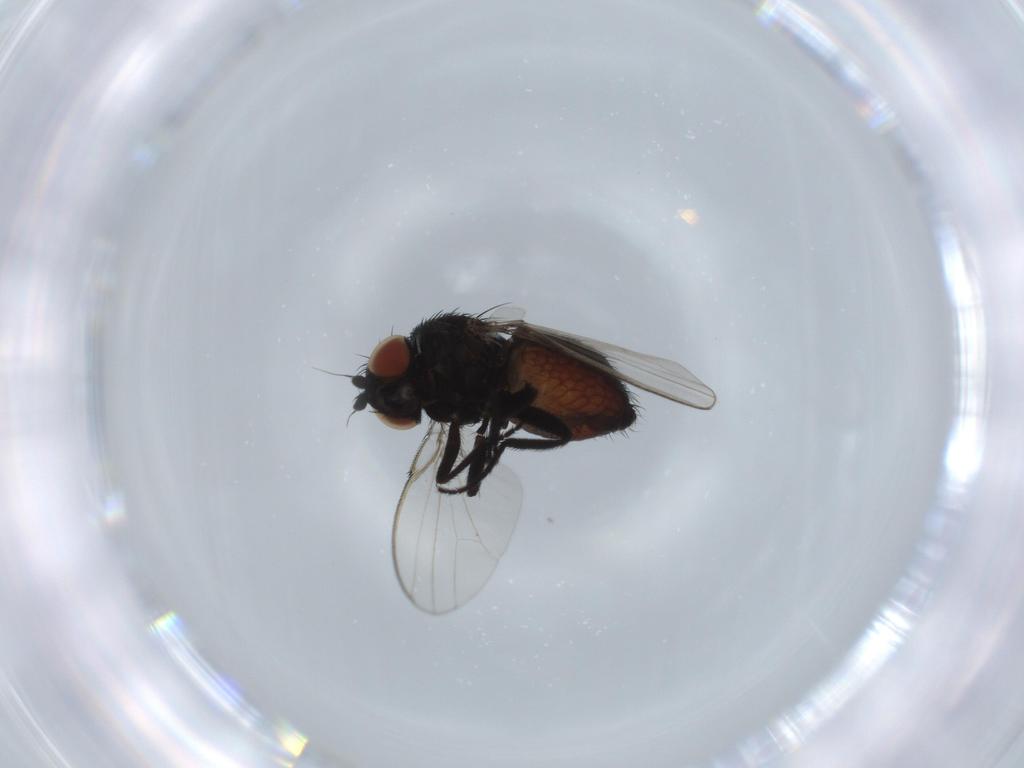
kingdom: Animalia
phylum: Arthropoda
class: Insecta
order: Diptera
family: Milichiidae
